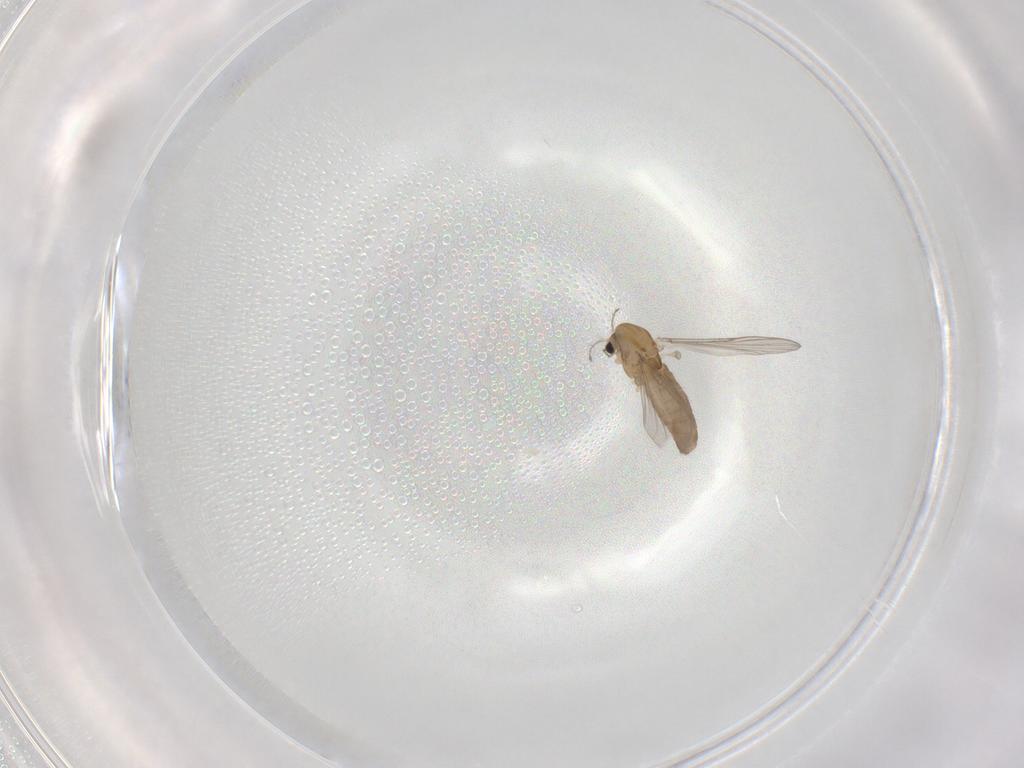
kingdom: Animalia
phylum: Arthropoda
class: Insecta
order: Diptera
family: Chironomidae
